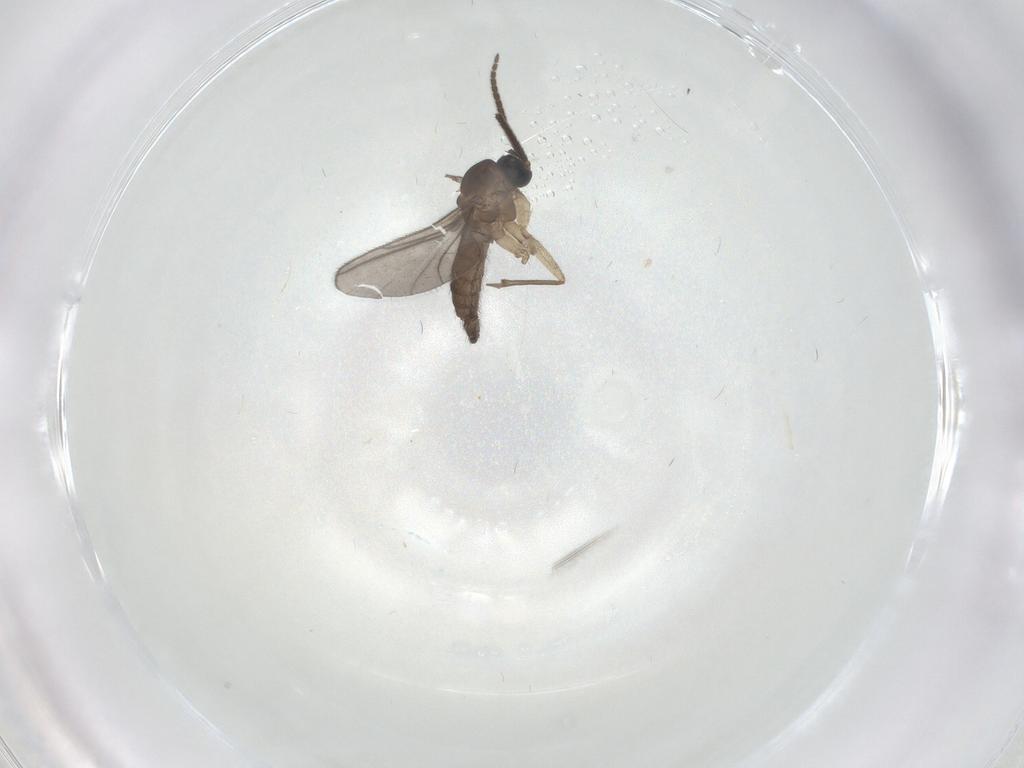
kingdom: Animalia
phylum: Arthropoda
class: Insecta
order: Diptera
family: Sciaridae
